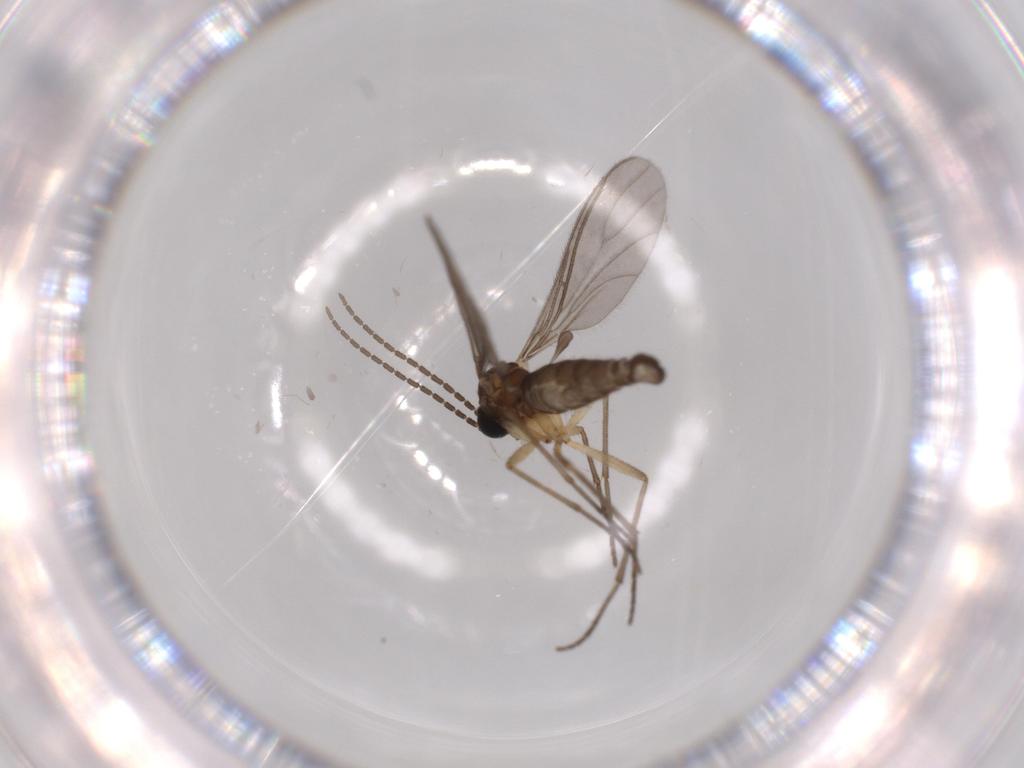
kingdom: Animalia
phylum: Arthropoda
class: Insecta
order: Diptera
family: Sciaridae
